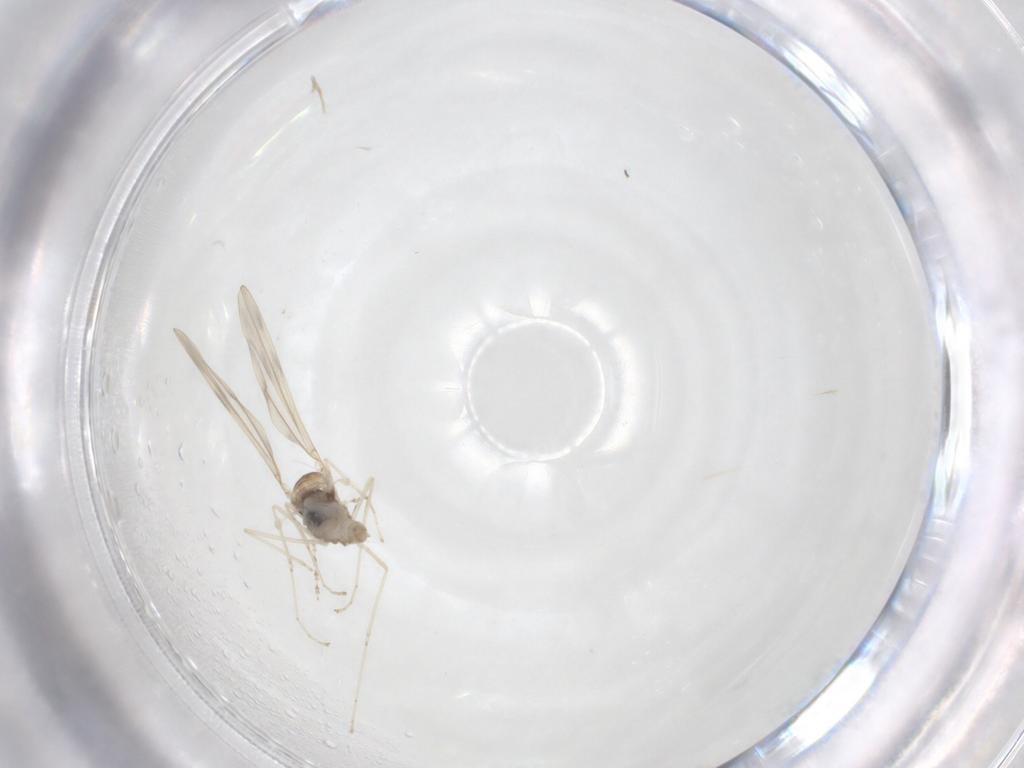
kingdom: Animalia
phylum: Arthropoda
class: Insecta
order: Diptera
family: Cecidomyiidae
